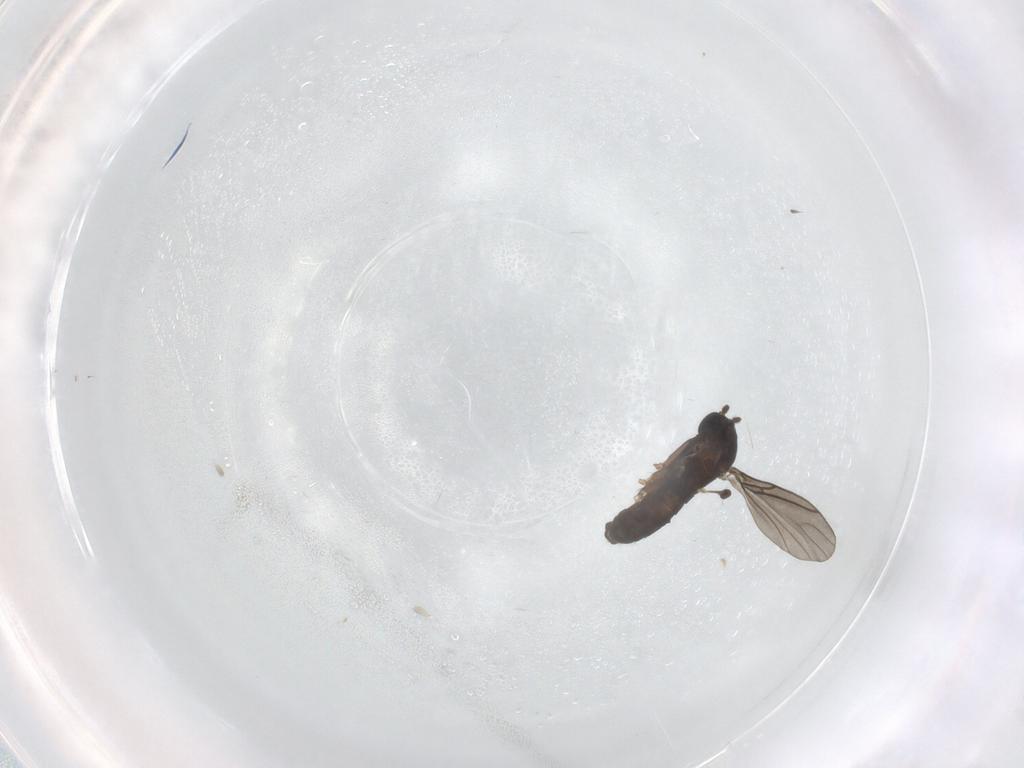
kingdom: Animalia
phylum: Arthropoda
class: Insecta
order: Diptera
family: Sciaridae
